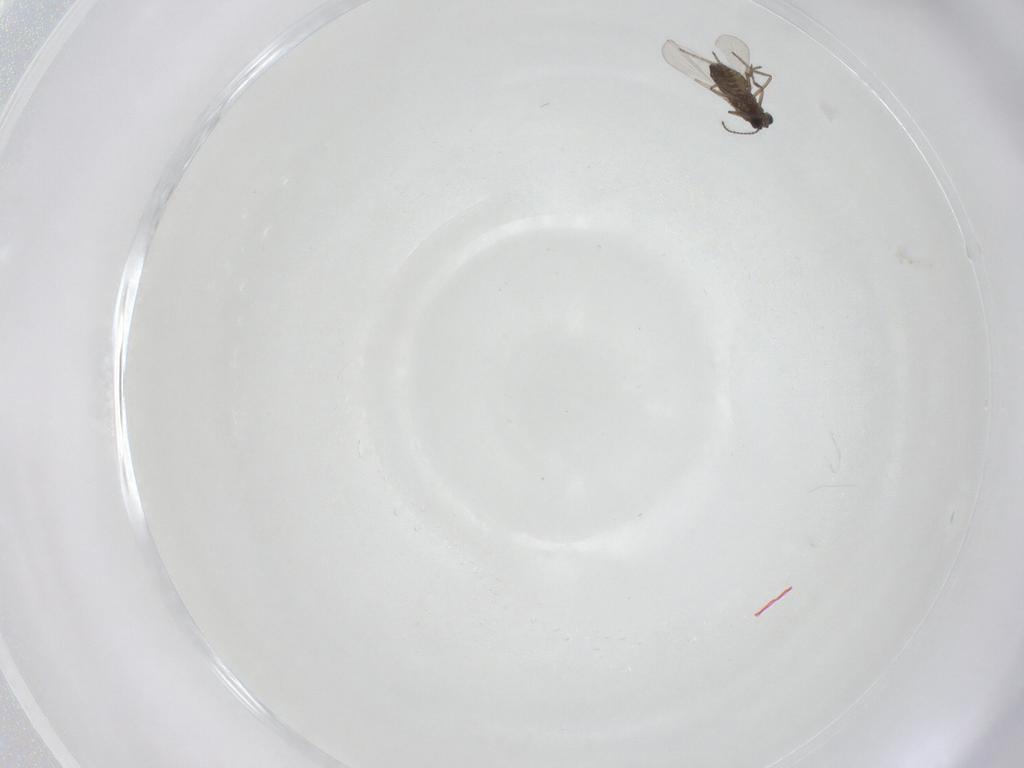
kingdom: Animalia
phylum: Arthropoda
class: Insecta
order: Diptera
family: Ceratopogonidae
